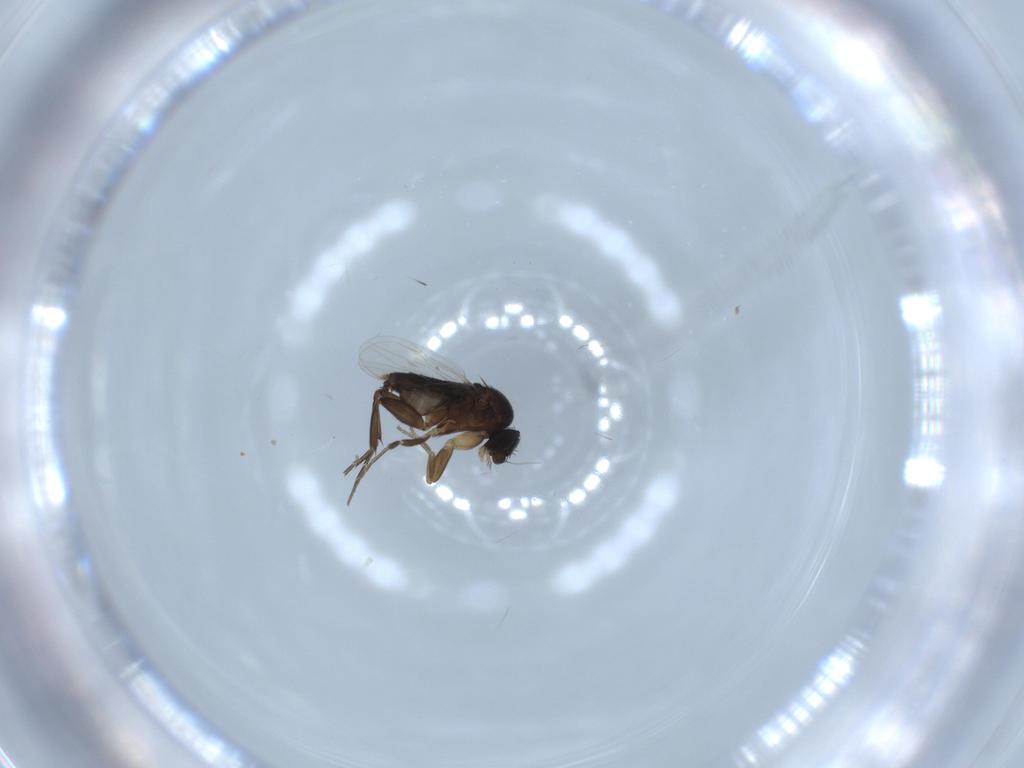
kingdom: Animalia
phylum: Arthropoda
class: Insecta
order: Diptera
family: Phoridae
